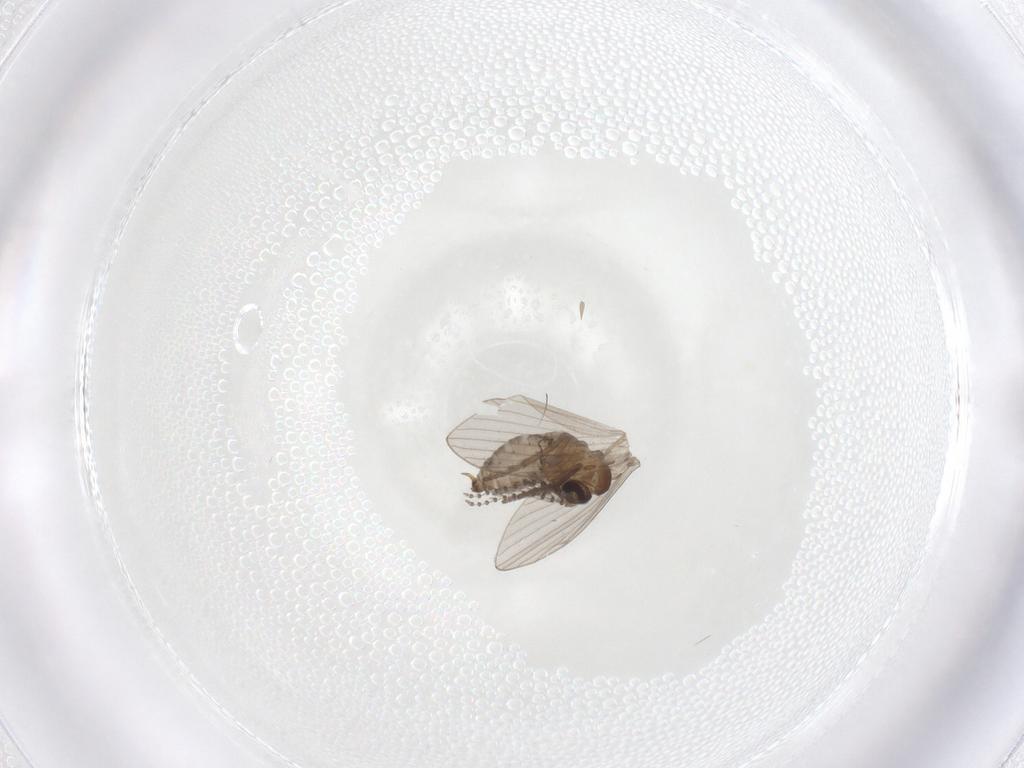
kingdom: Animalia
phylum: Arthropoda
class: Insecta
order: Diptera
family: Psychodidae
